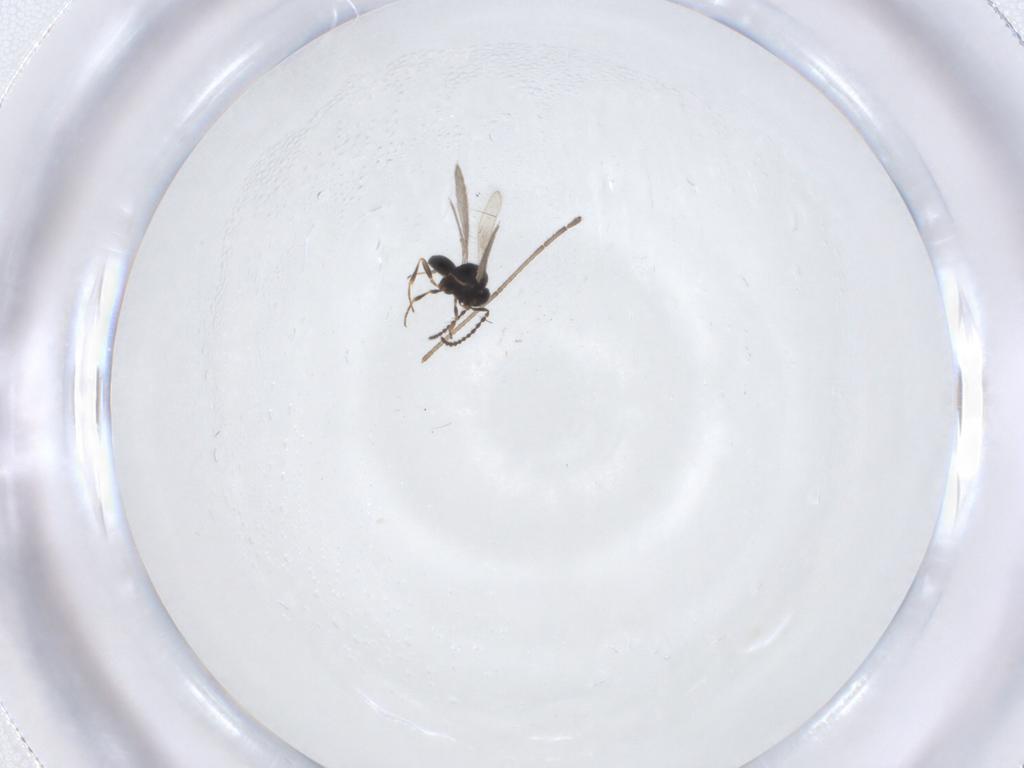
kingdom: Animalia
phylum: Arthropoda
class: Insecta
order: Hymenoptera
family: Scelionidae
